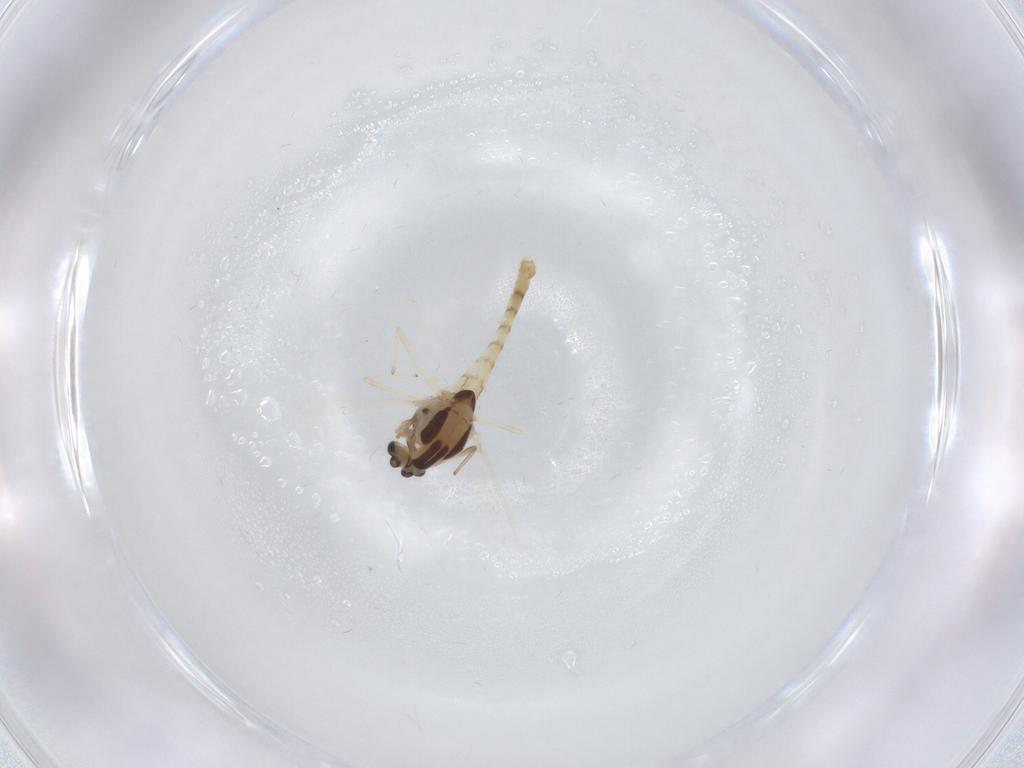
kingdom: Animalia
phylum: Arthropoda
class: Insecta
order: Diptera
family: Chironomidae
